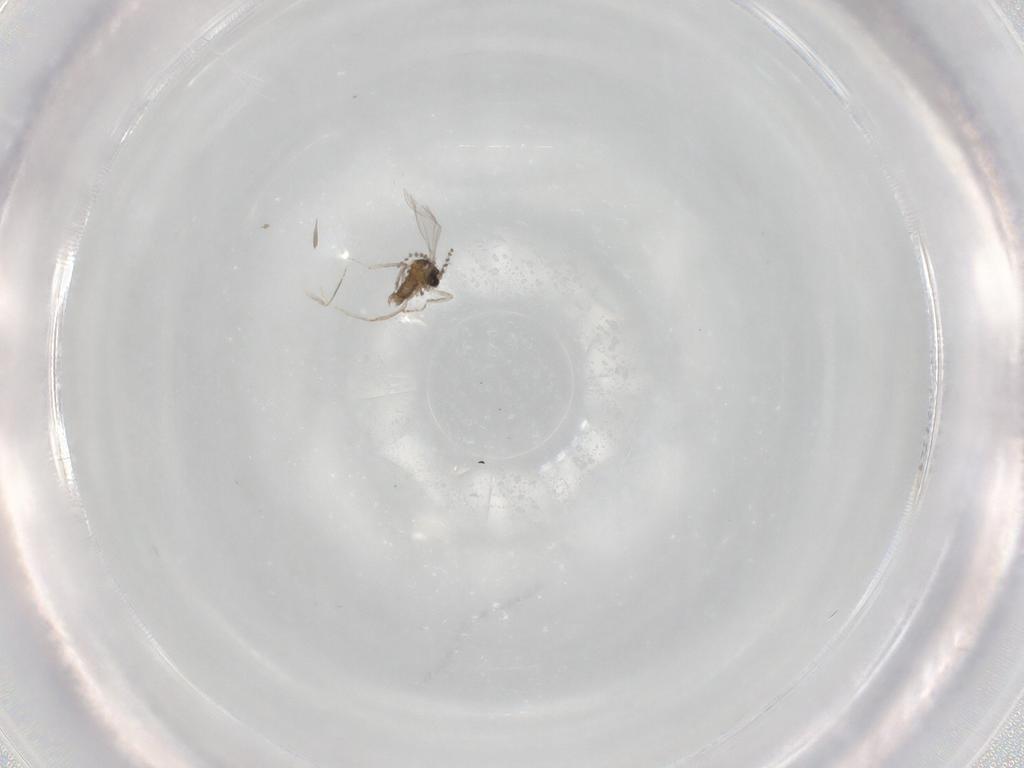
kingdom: Animalia
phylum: Arthropoda
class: Insecta
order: Diptera
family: Cecidomyiidae
